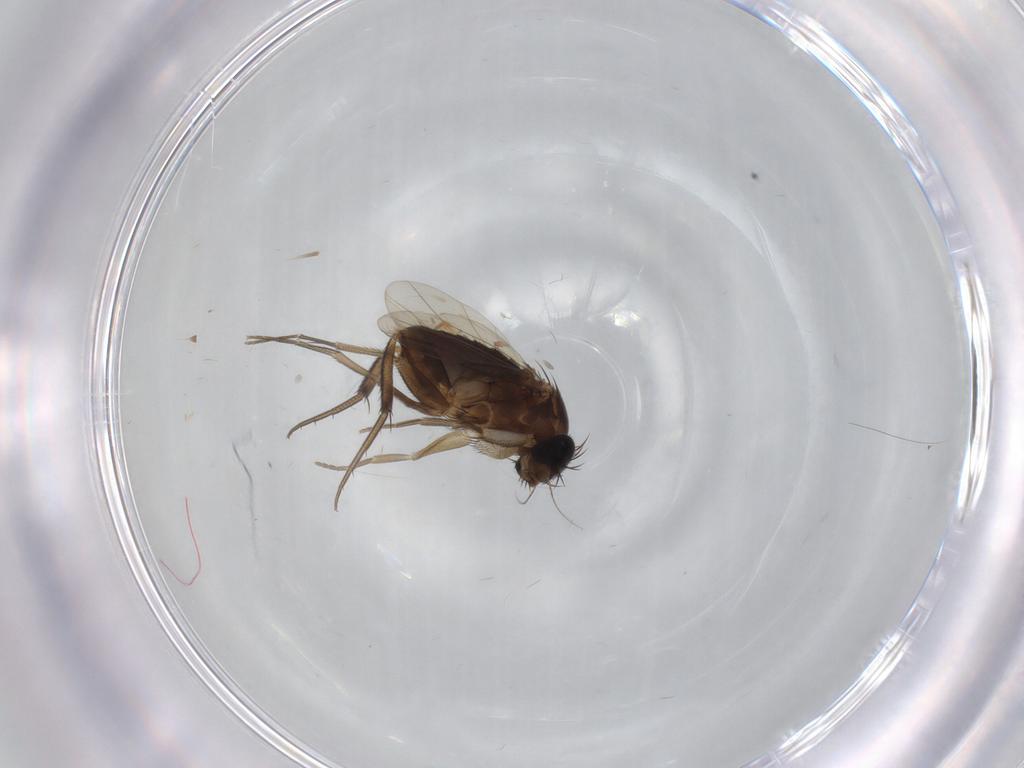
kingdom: Animalia
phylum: Arthropoda
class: Insecta
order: Diptera
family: Phoridae
